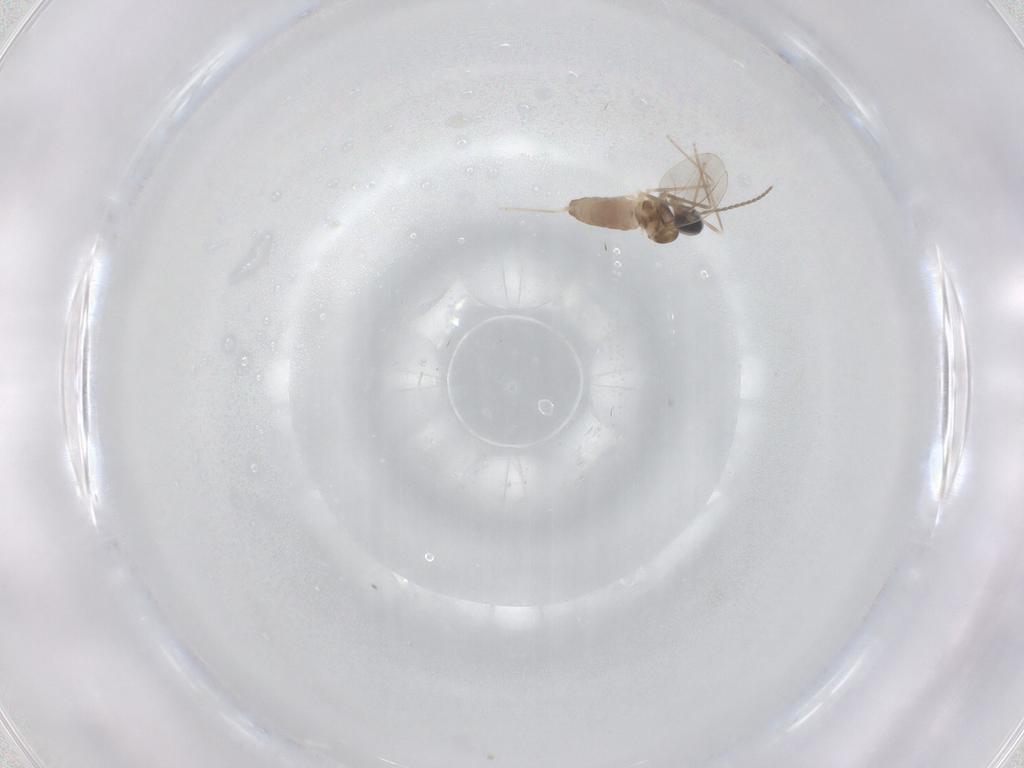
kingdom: Animalia
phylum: Arthropoda
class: Insecta
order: Diptera
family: Cecidomyiidae
